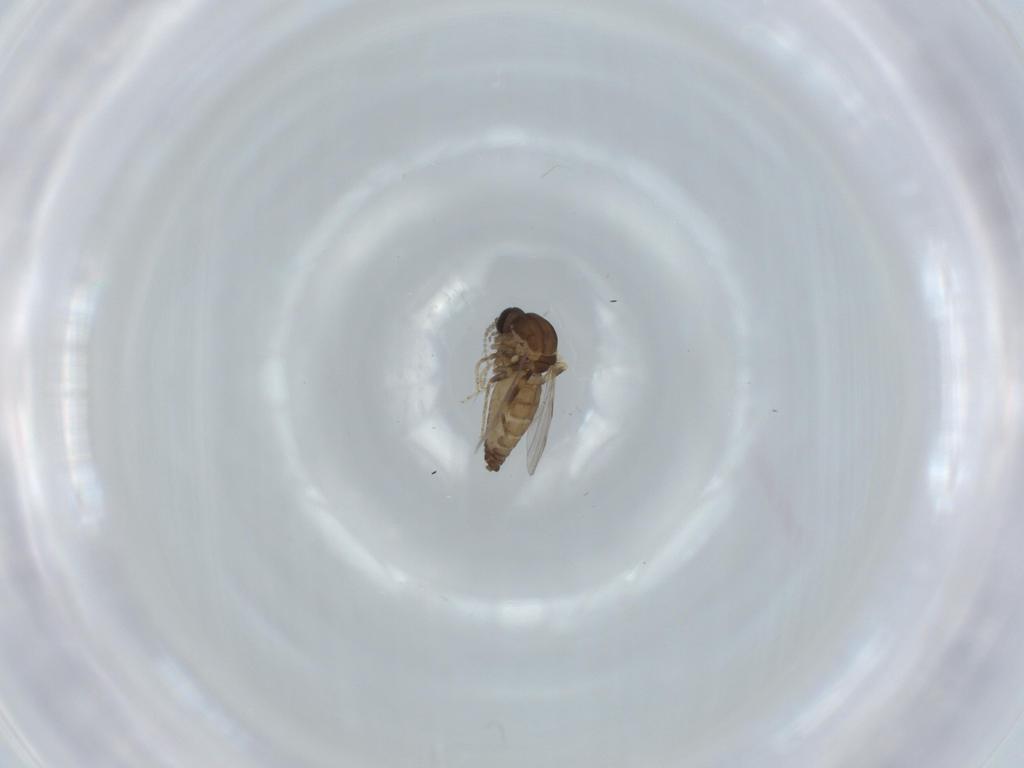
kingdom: Animalia
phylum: Arthropoda
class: Insecta
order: Diptera
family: Ceratopogonidae
